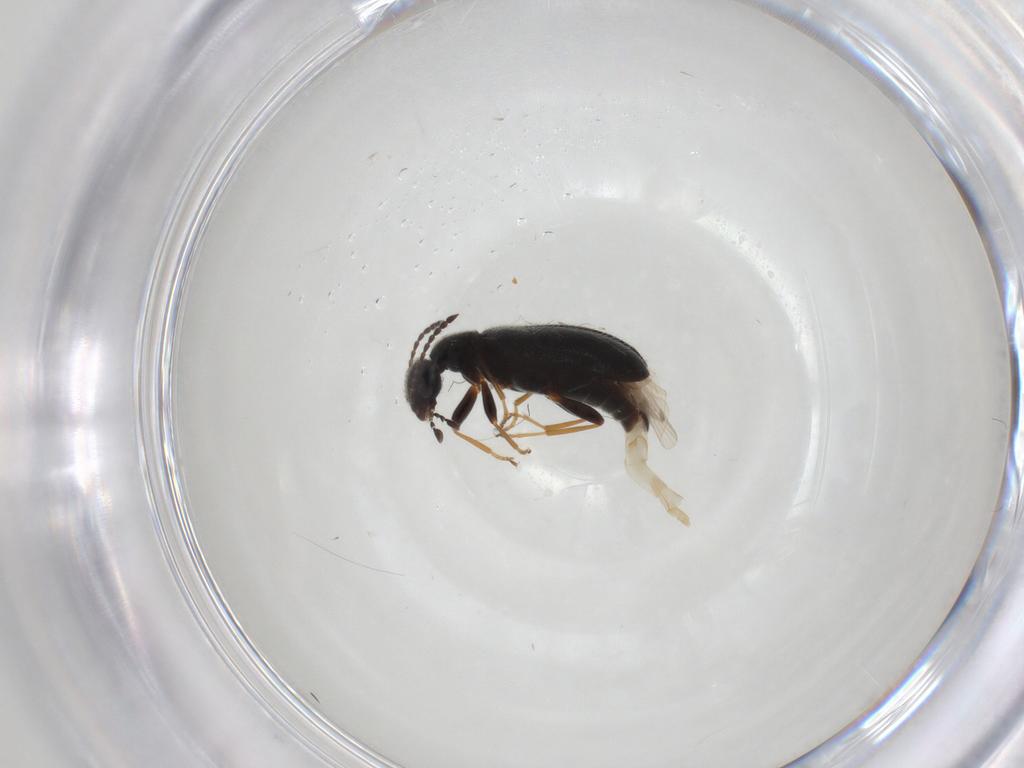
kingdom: Animalia
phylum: Arthropoda
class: Insecta
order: Coleoptera
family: Anthicidae
